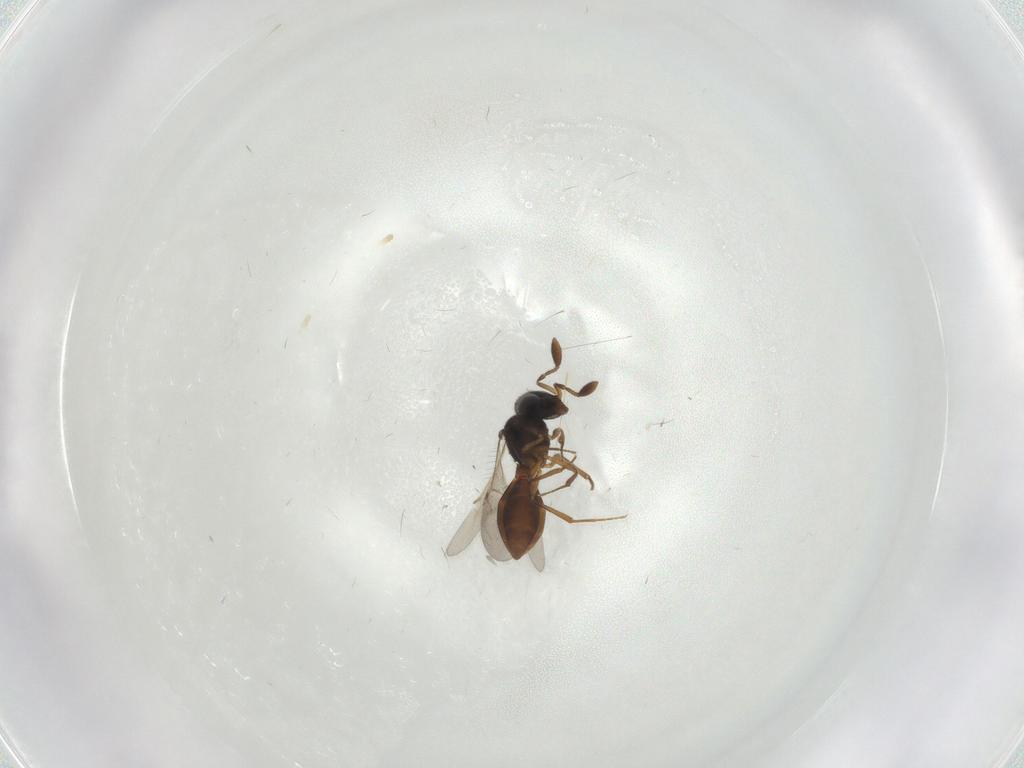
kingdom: Animalia
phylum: Arthropoda
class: Insecta
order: Hymenoptera
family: Scelionidae
